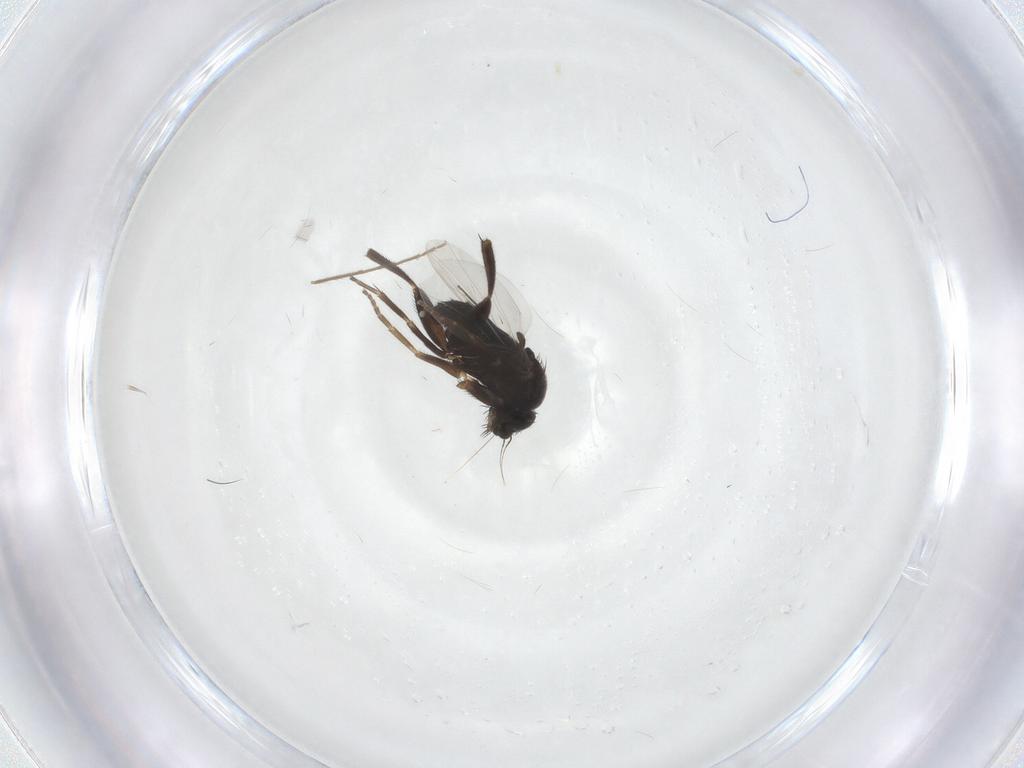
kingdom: Animalia
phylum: Arthropoda
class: Insecta
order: Diptera
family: Phoridae
